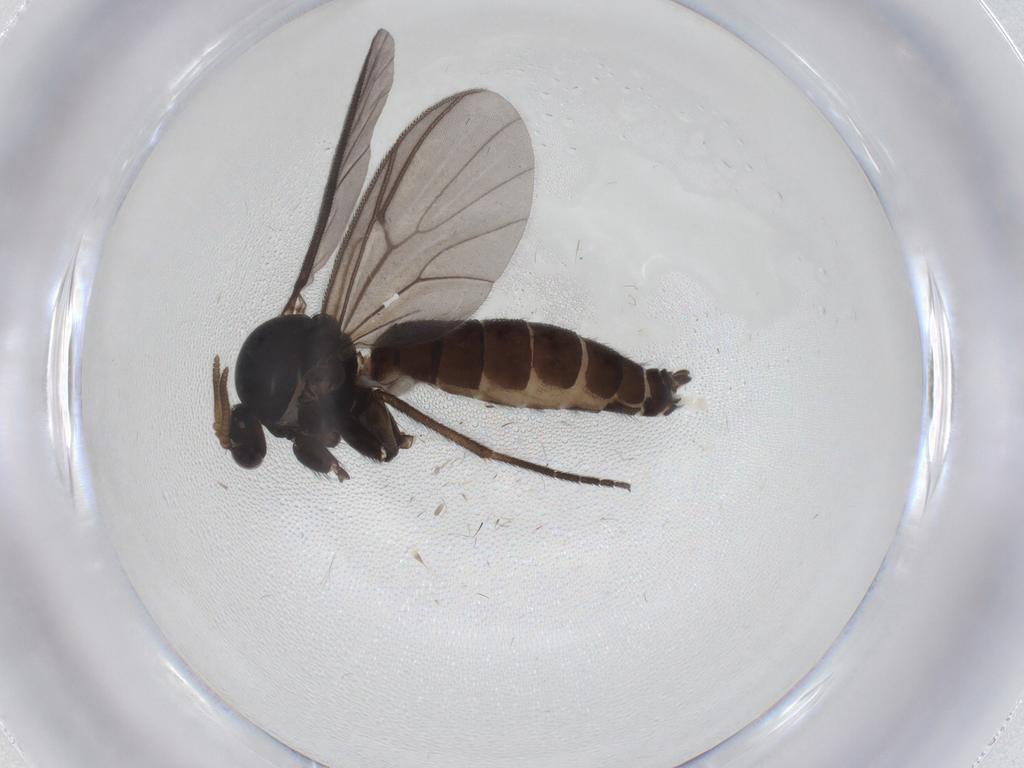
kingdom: Animalia
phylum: Arthropoda
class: Insecta
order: Diptera
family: Mycetophilidae
